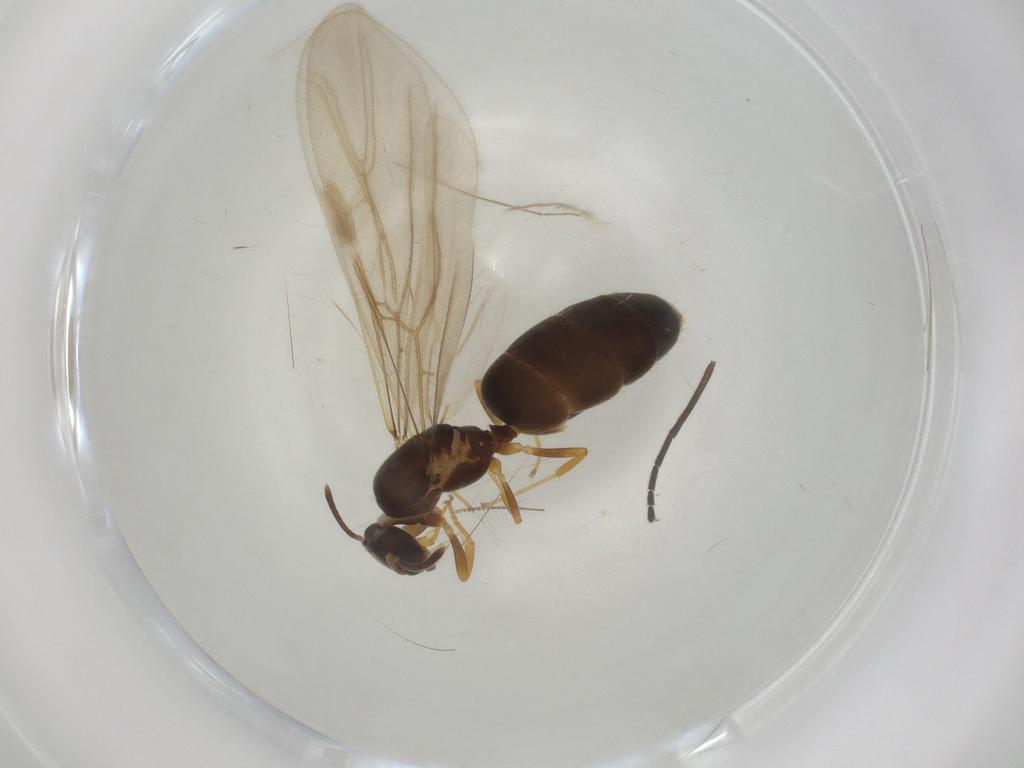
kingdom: Animalia
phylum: Arthropoda
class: Insecta
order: Hymenoptera
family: Formicidae
